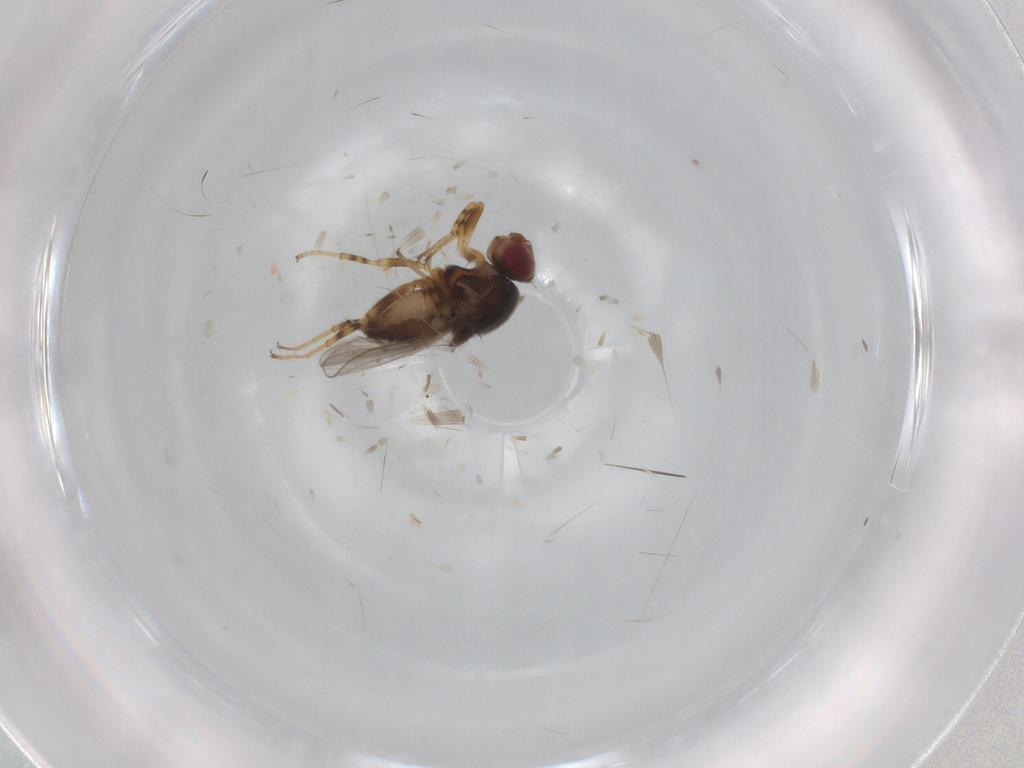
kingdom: Animalia
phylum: Arthropoda
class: Insecta
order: Diptera
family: Chloropidae
